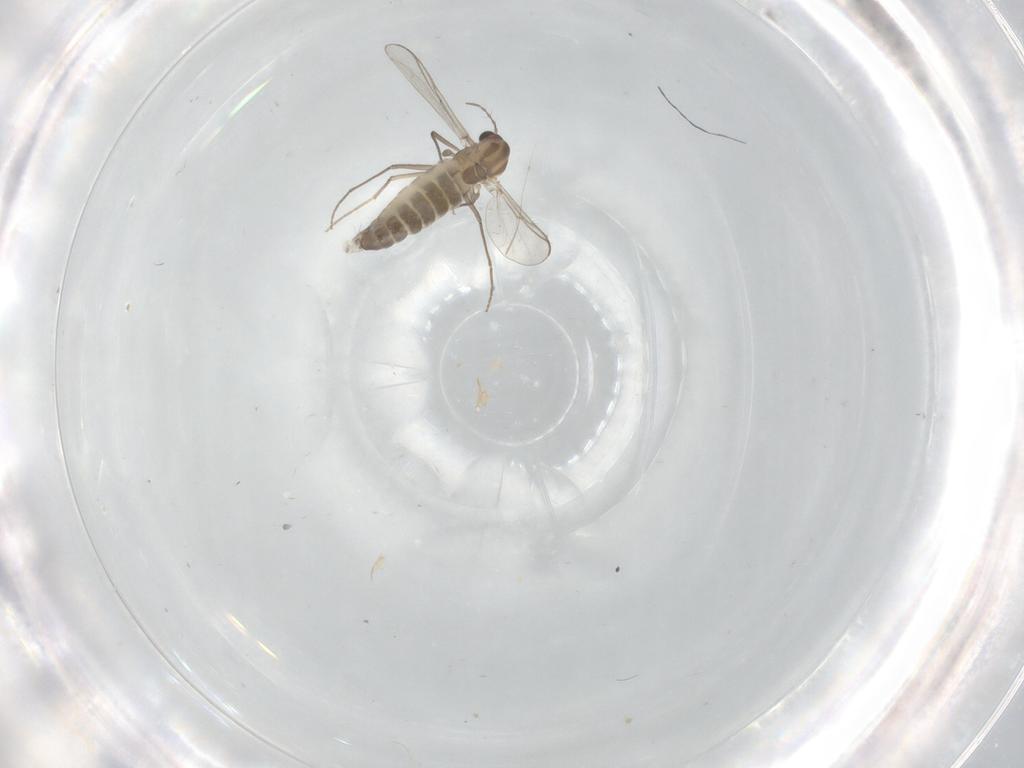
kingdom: Animalia
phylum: Arthropoda
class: Insecta
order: Diptera
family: Chironomidae
